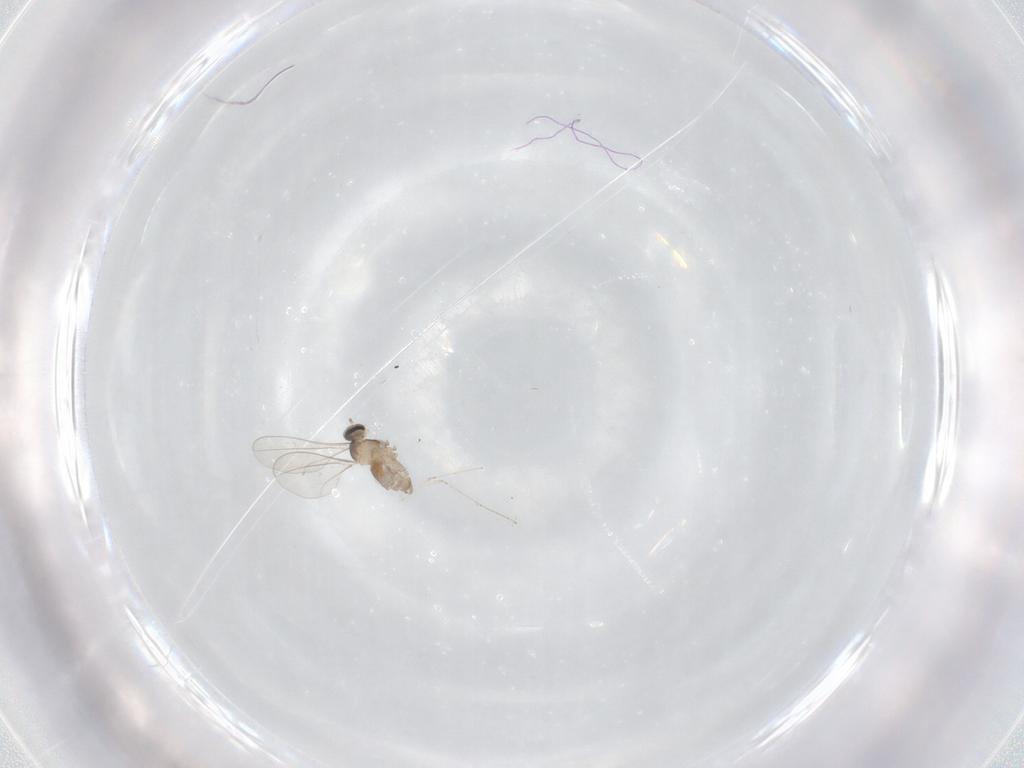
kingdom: Animalia
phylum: Arthropoda
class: Insecta
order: Diptera
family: Cecidomyiidae
